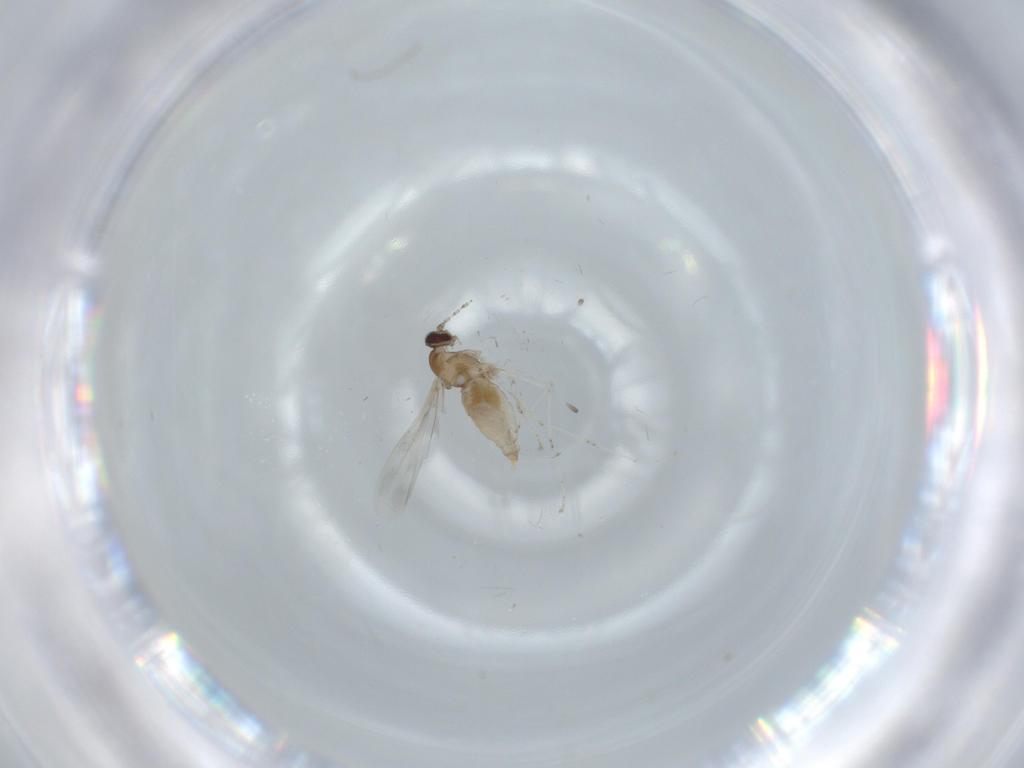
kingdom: Animalia
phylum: Arthropoda
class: Insecta
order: Diptera
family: Cecidomyiidae
